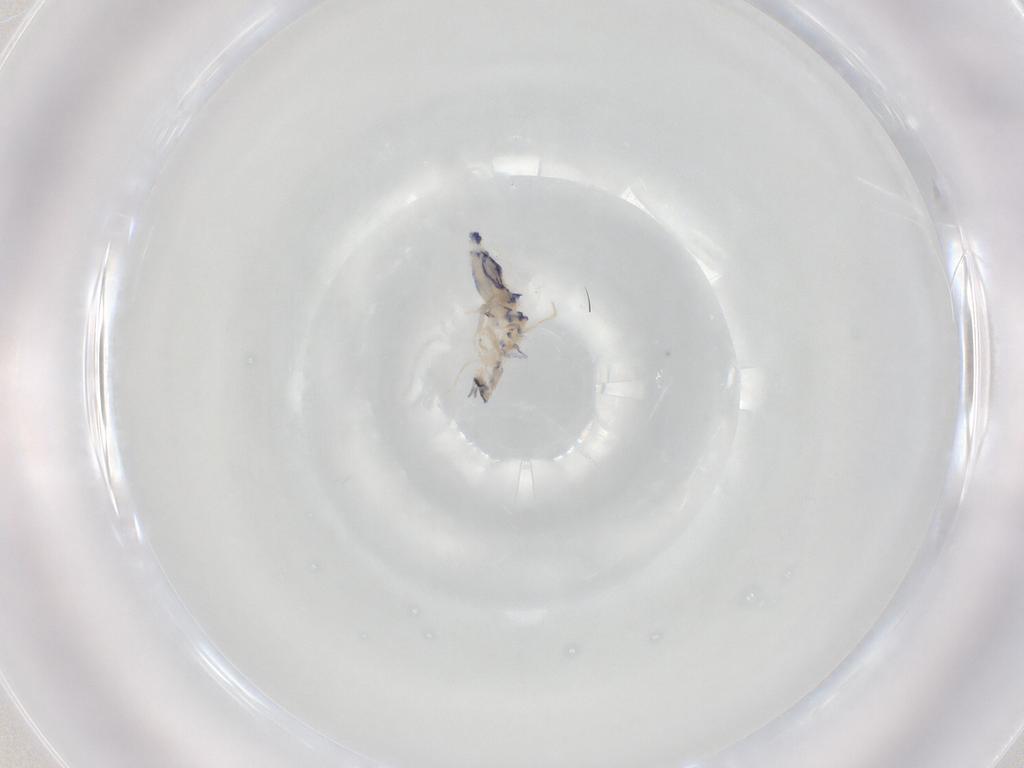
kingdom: Animalia
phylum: Arthropoda
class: Collembola
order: Entomobryomorpha
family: Entomobryidae
